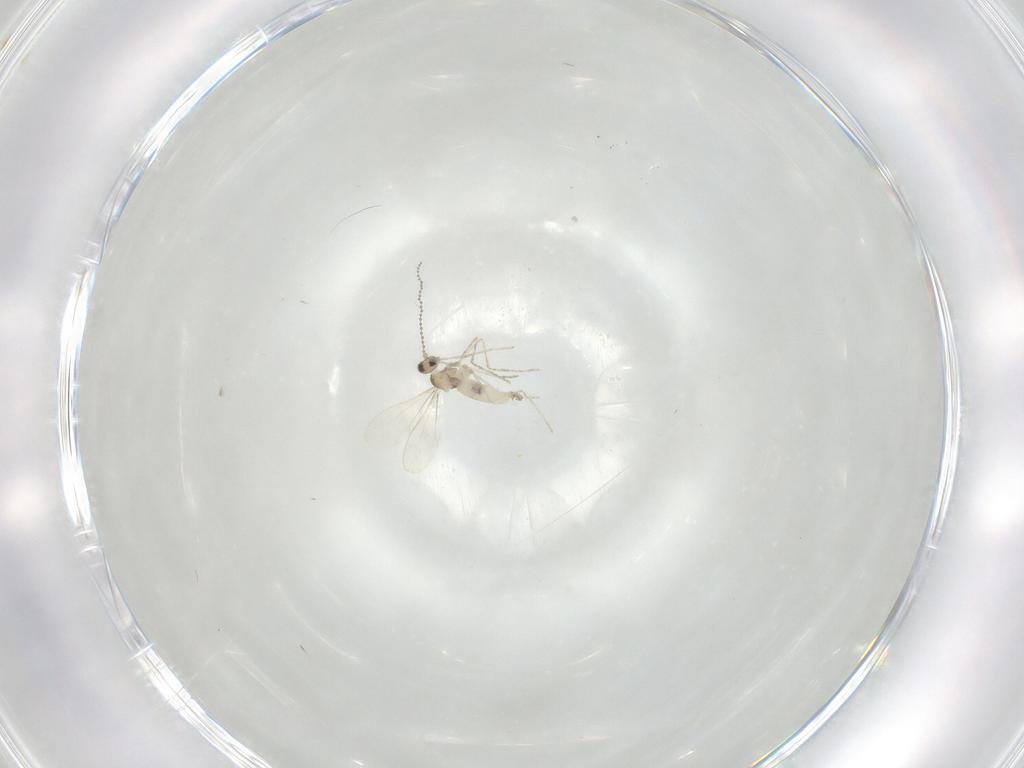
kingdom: Animalia
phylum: Arthropoda
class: Insecta
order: Diptera
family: Cecidomyiidae
